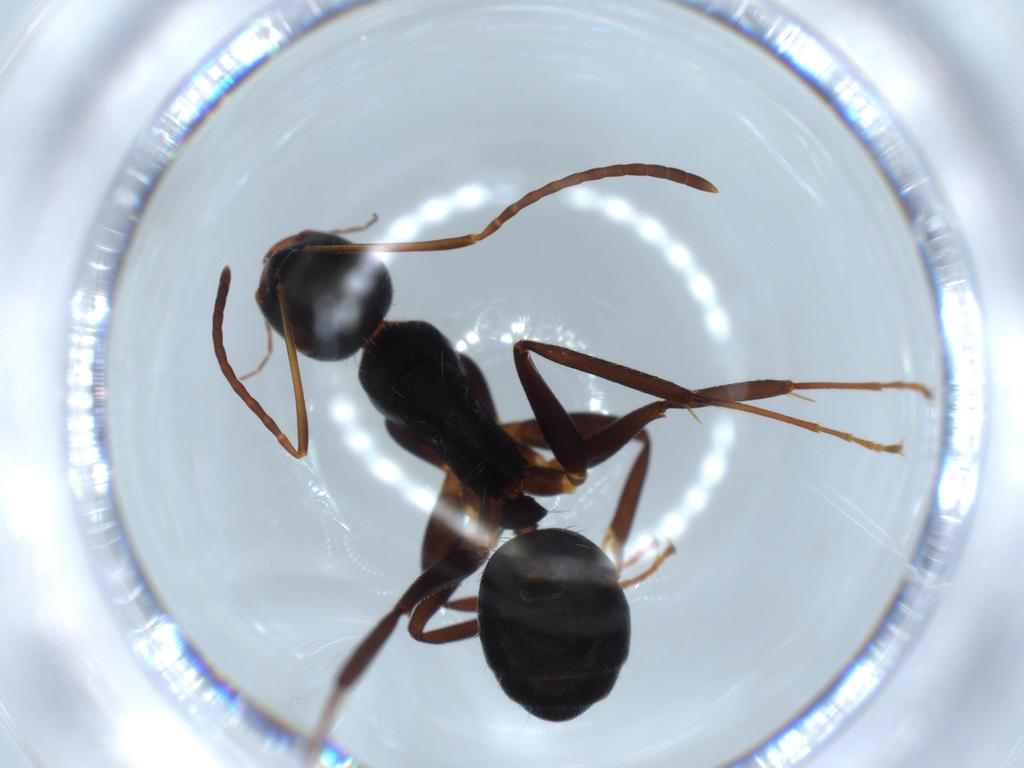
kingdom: Animalia
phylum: Arthropoda
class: Insecta
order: Hymenoptera
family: Formicidae
